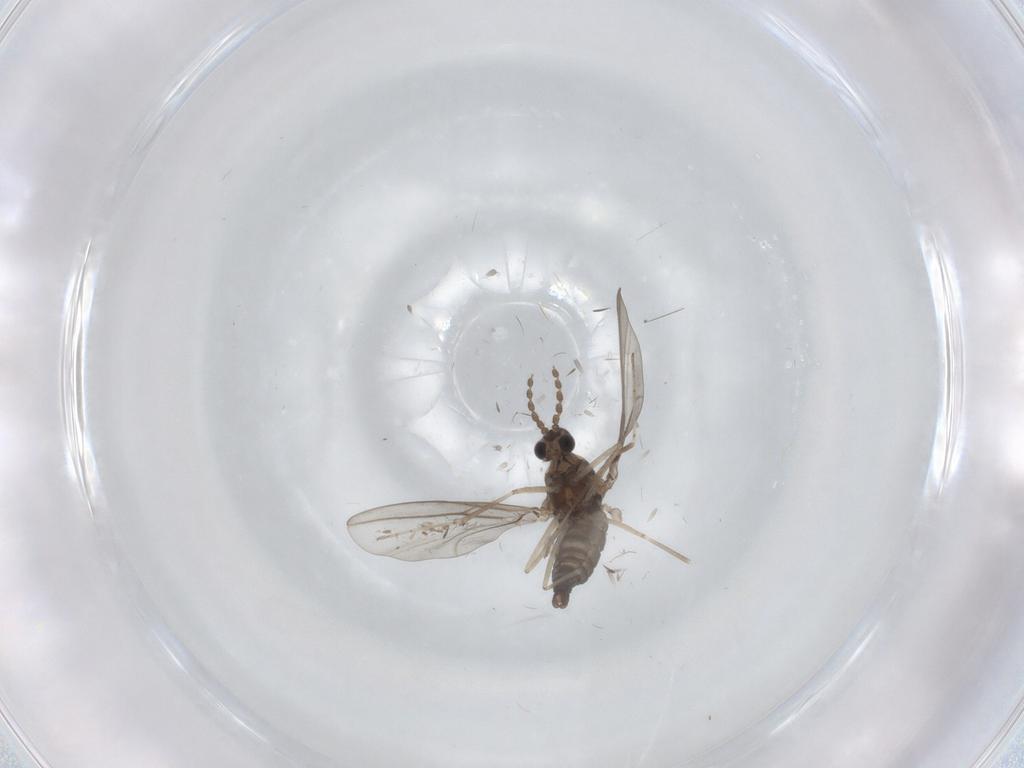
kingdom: Animalia
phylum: Arthropoda
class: Insecta
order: Diptera
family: Cecidomyiidae
